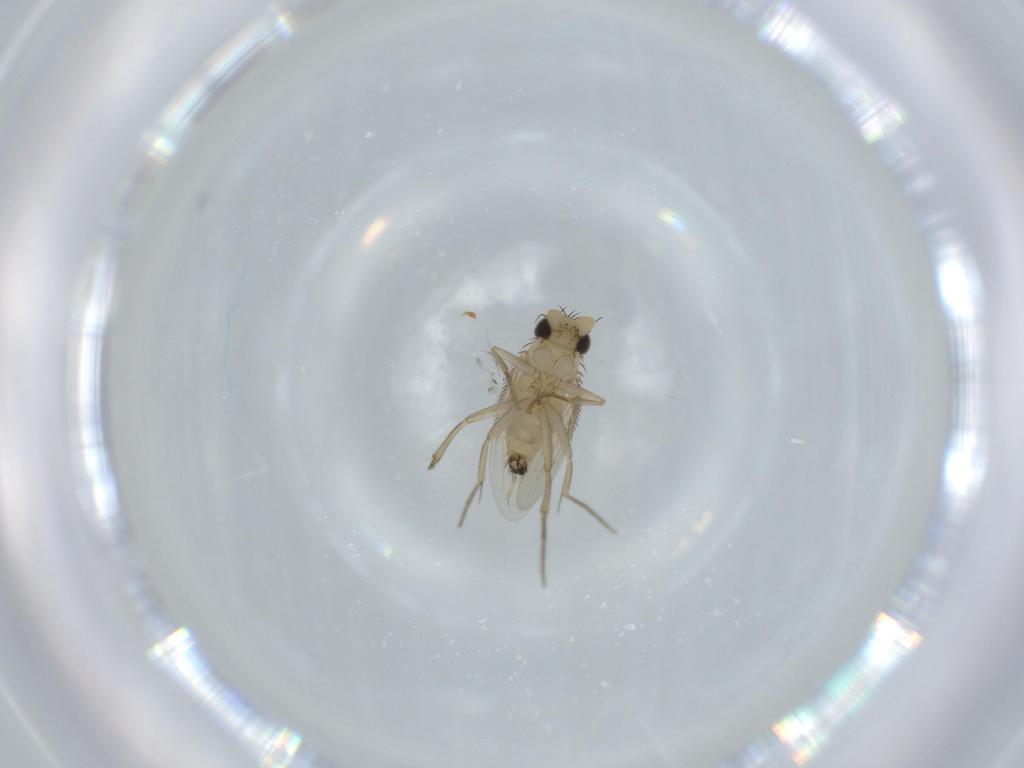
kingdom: Animalia
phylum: Arthropoda
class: Insecta
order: Diptera
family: Phoridae
